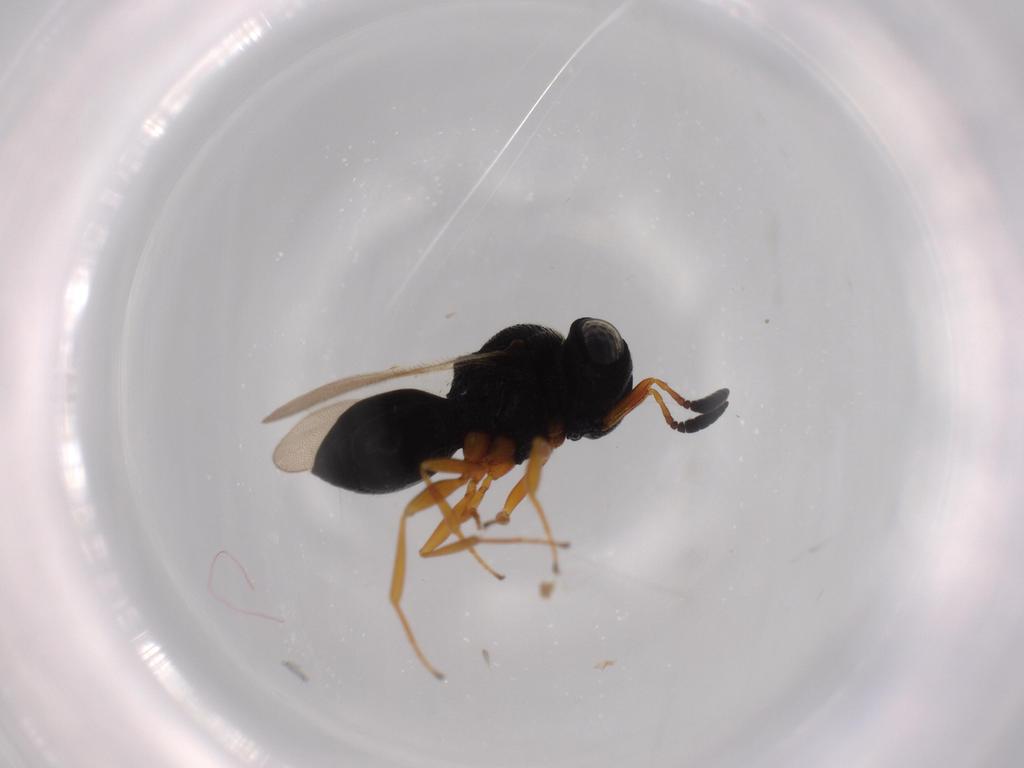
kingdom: Animalia
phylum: Arthropoda
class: Insecta
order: Hymenoptera
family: Scelionidae
